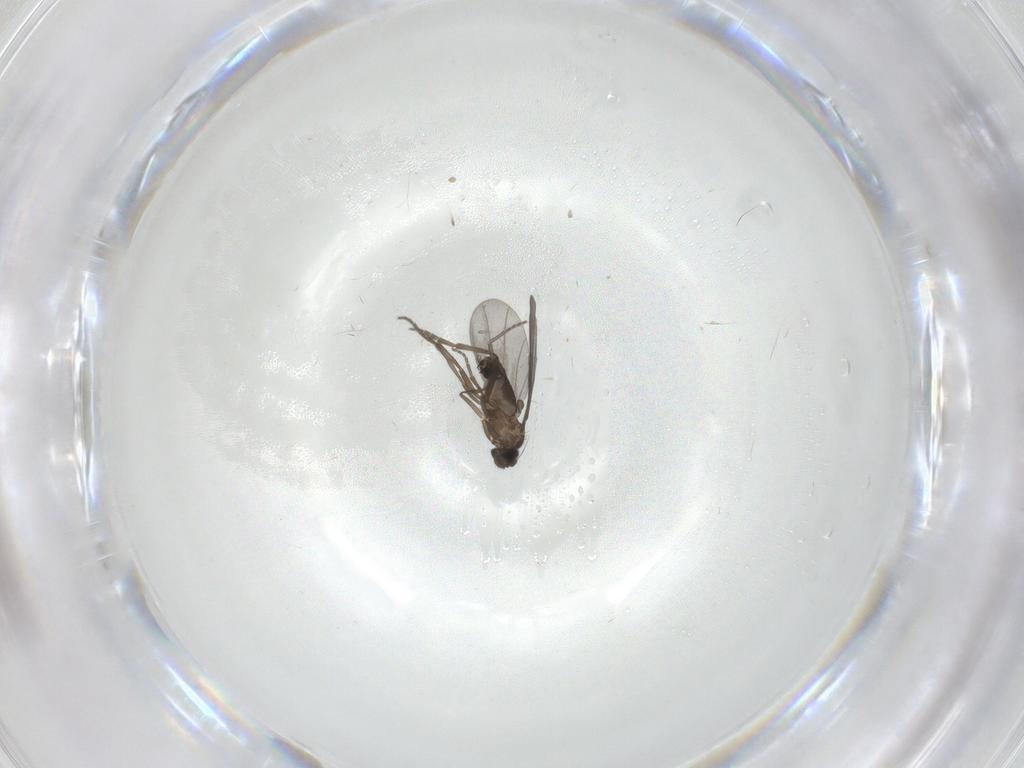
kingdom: Animalia
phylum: Arthropoda
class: Insecta
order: Diptera
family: Phoridae
